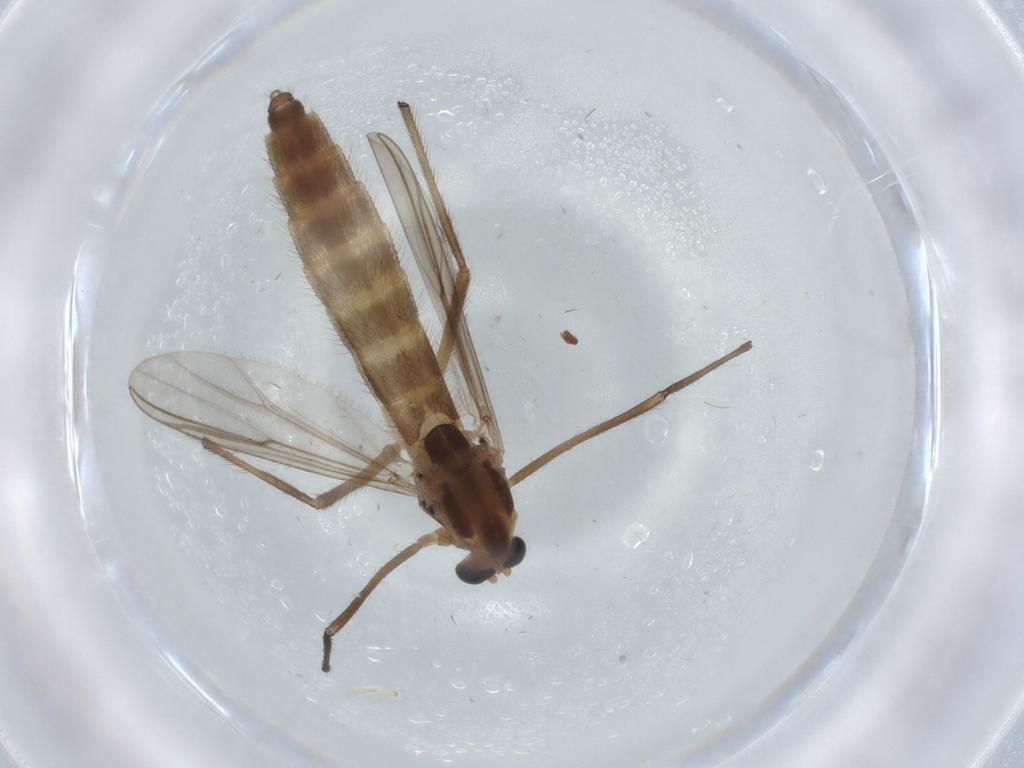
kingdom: Animalia
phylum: Arthropoda
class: Insecta
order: Diptera
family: Chironomidae
